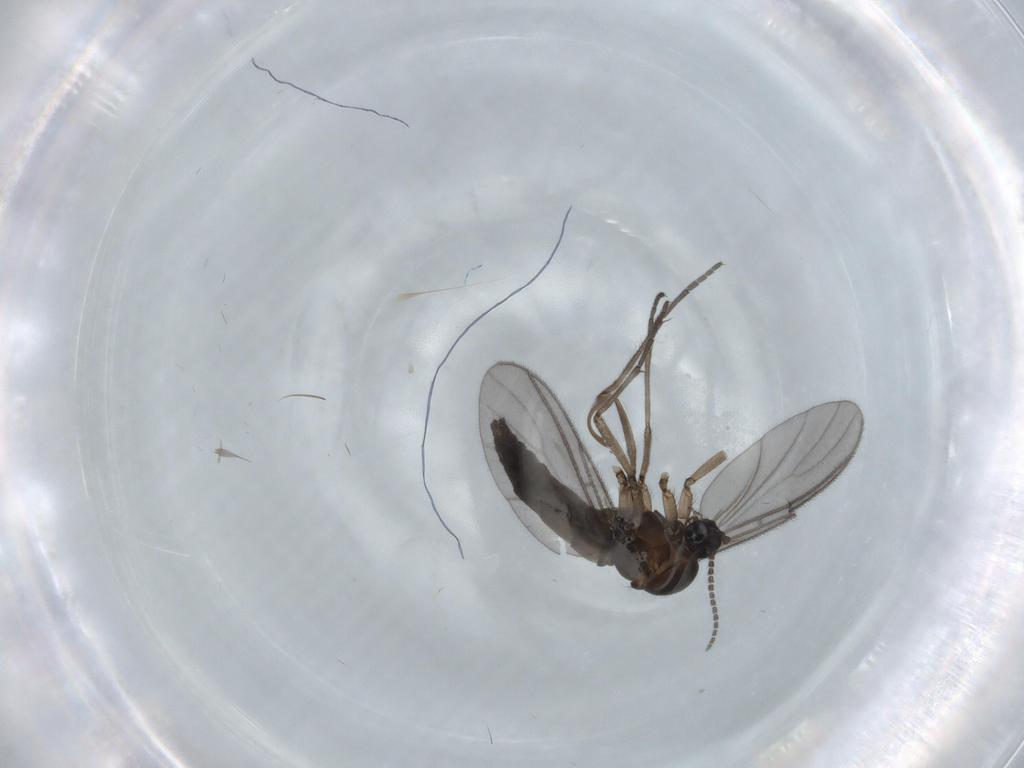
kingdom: Animalia
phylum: Arthropoda
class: Insecta
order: Diptera
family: Sciaridae
